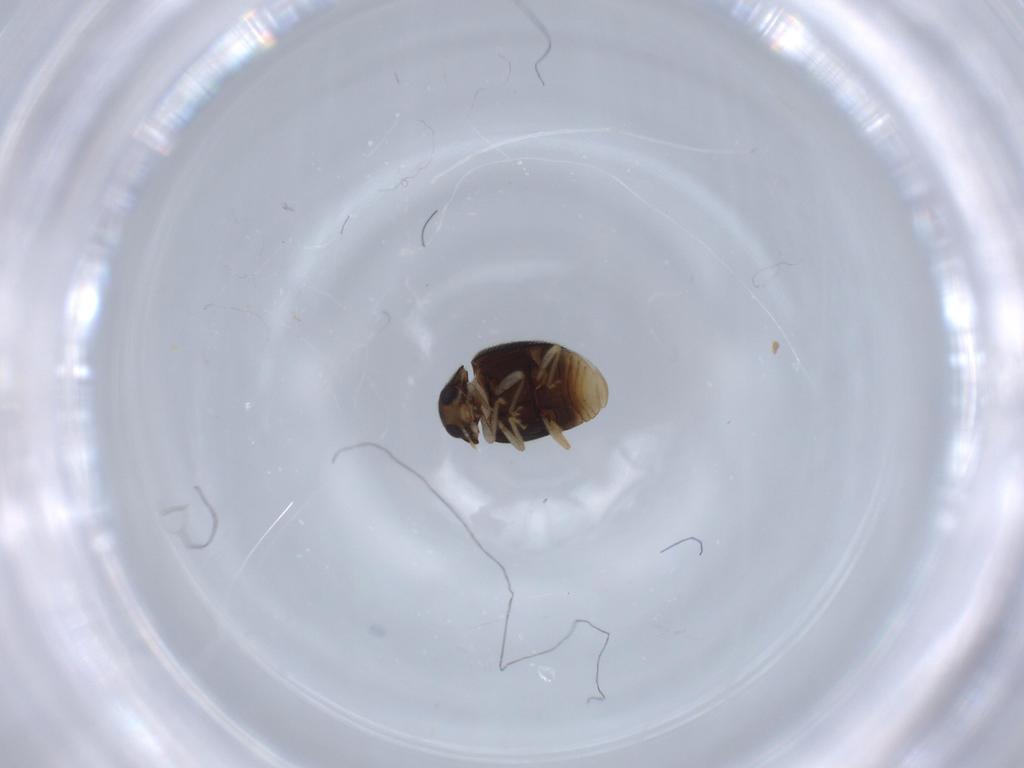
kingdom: Animalia
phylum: Arthropoda
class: Insecta
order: Coleoptera
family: Coccinellidae
